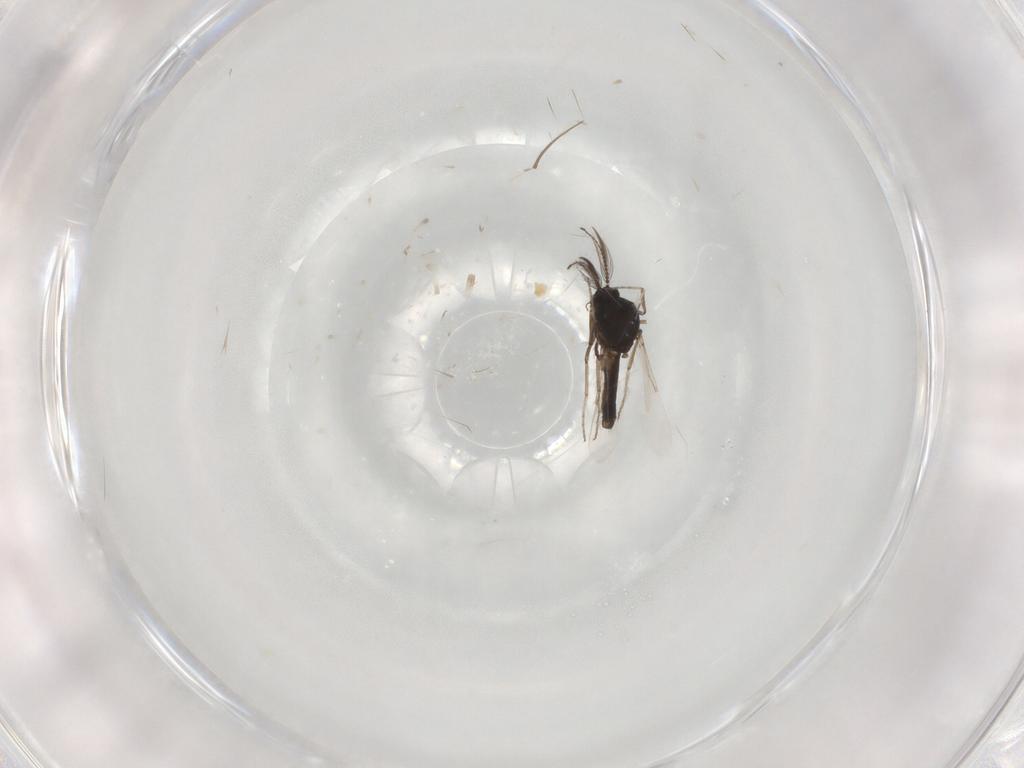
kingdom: Animalia
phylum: Arthropoda
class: Insecta
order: Diptera
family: Ceratopogonidae
